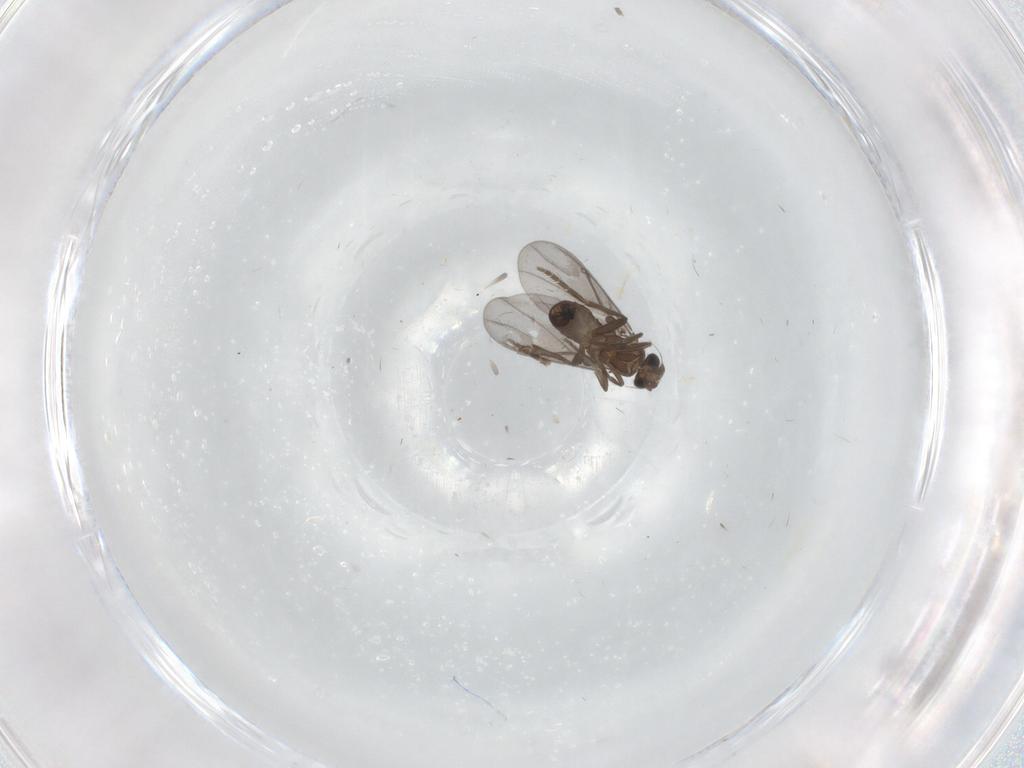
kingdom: Animalia
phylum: Arthropoda
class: Insecta
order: Diptera
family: Phoridae
